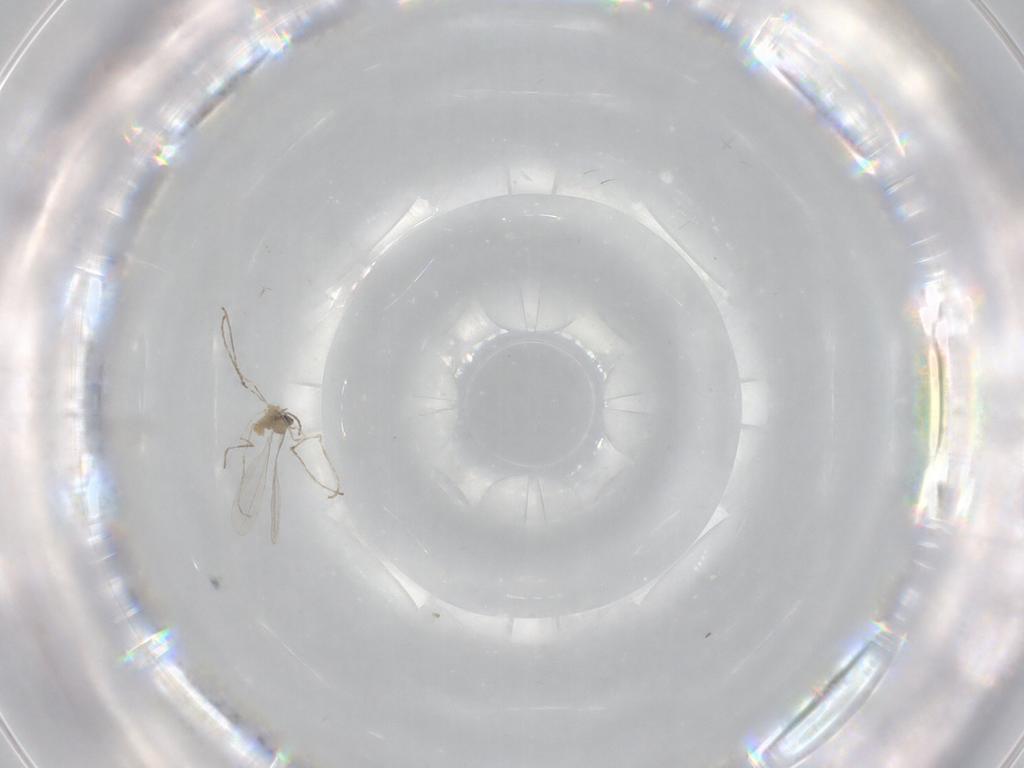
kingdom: Animalia
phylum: Arthropoda
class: Insecta
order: Diptera
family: Cecidomyiidae
